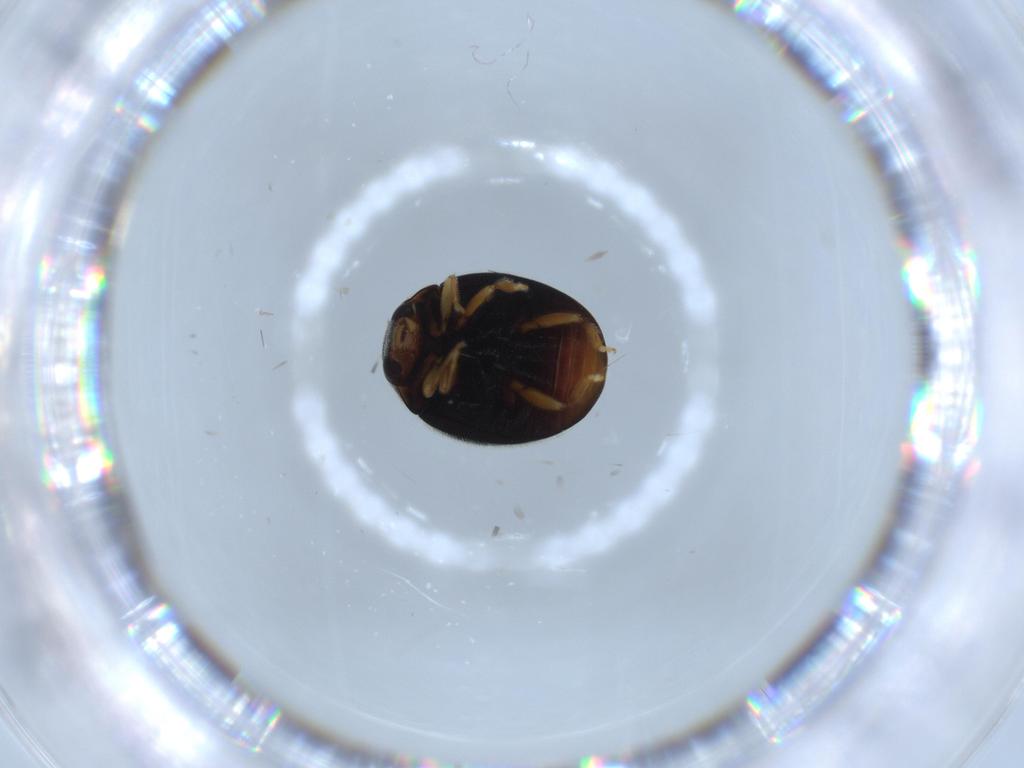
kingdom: Animalia
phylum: Arthropoda
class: Insecta
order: Coleoptera
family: Coccinellidae
